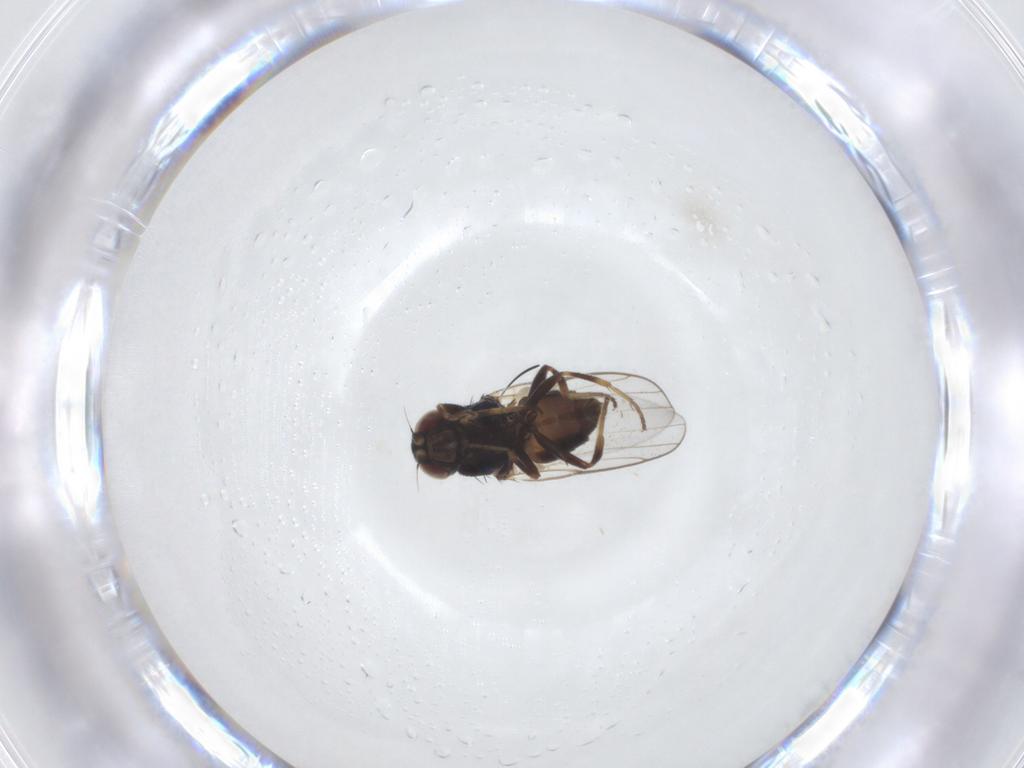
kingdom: Animalia
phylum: Arthropoda
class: Insecta
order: Diptera
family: Chloropidae
